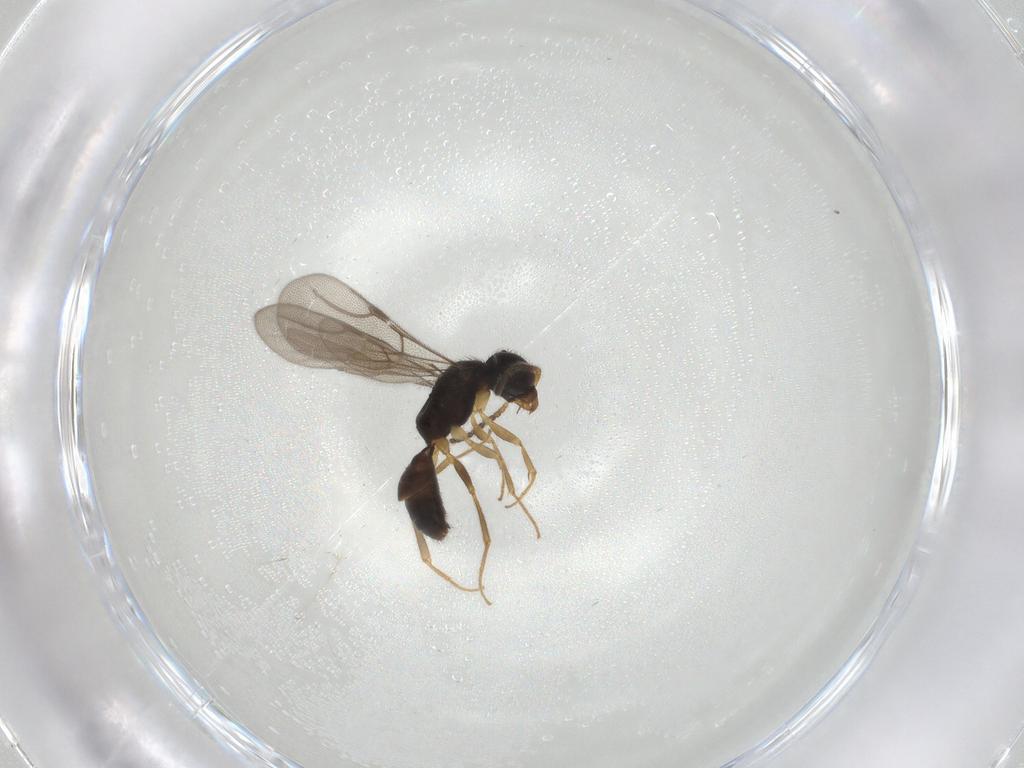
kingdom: Animalia
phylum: Arthropoda
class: Insecta
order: Hymenoptera
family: Bethylidae
